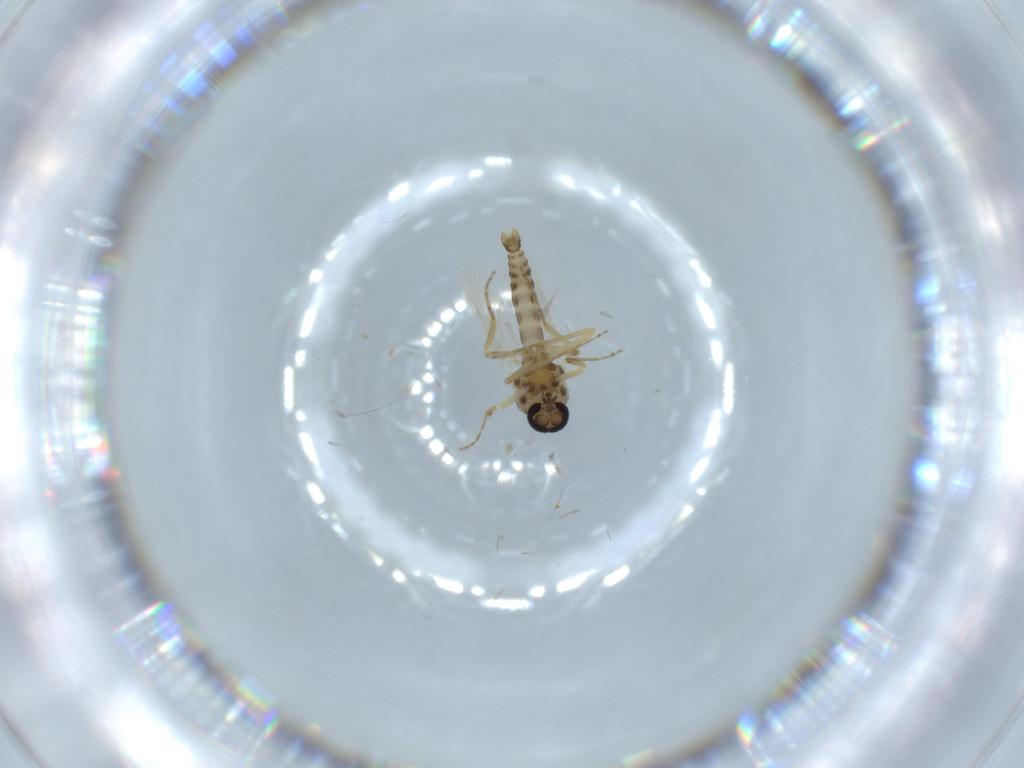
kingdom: Animalia
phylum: Arthropoda
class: Insecta
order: Diptera
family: Ceratopogonidae
